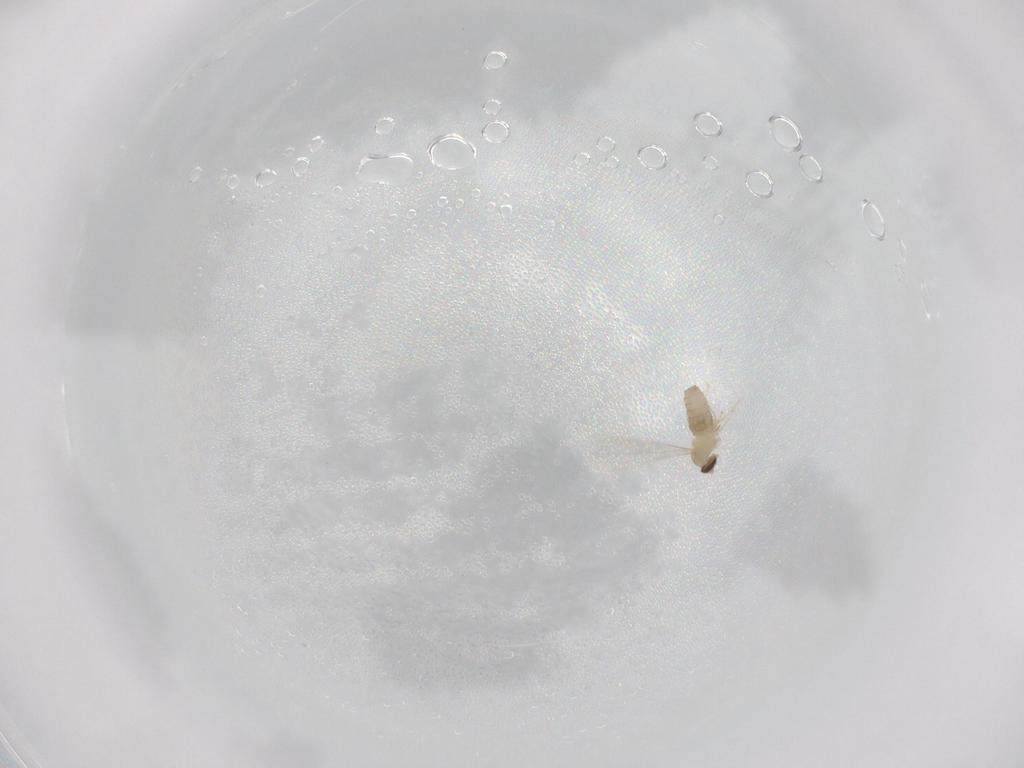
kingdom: Animalia
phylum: Arthropoda
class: Insecta
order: Diptera
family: Cecidomyiidae
